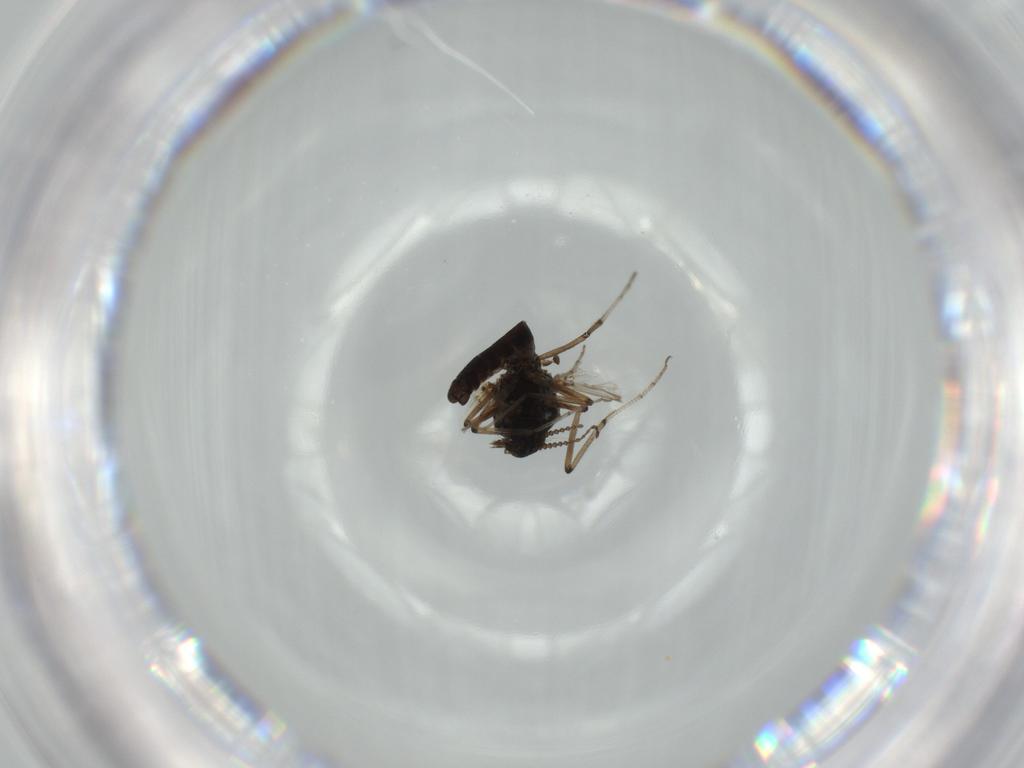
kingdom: Animalia
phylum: Arthropoda
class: Insecta
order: Diptera
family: Ceratopogonidae
